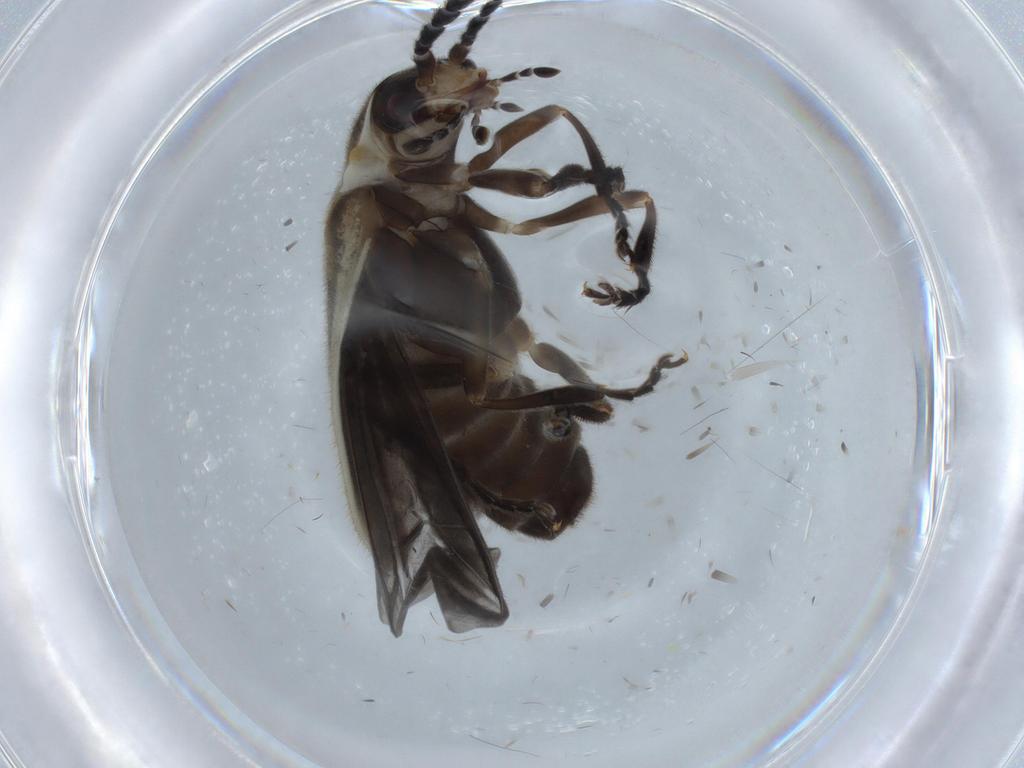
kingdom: Animalia
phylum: Arthropoda
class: Insecta
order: Coleoptera
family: Cantharidae
